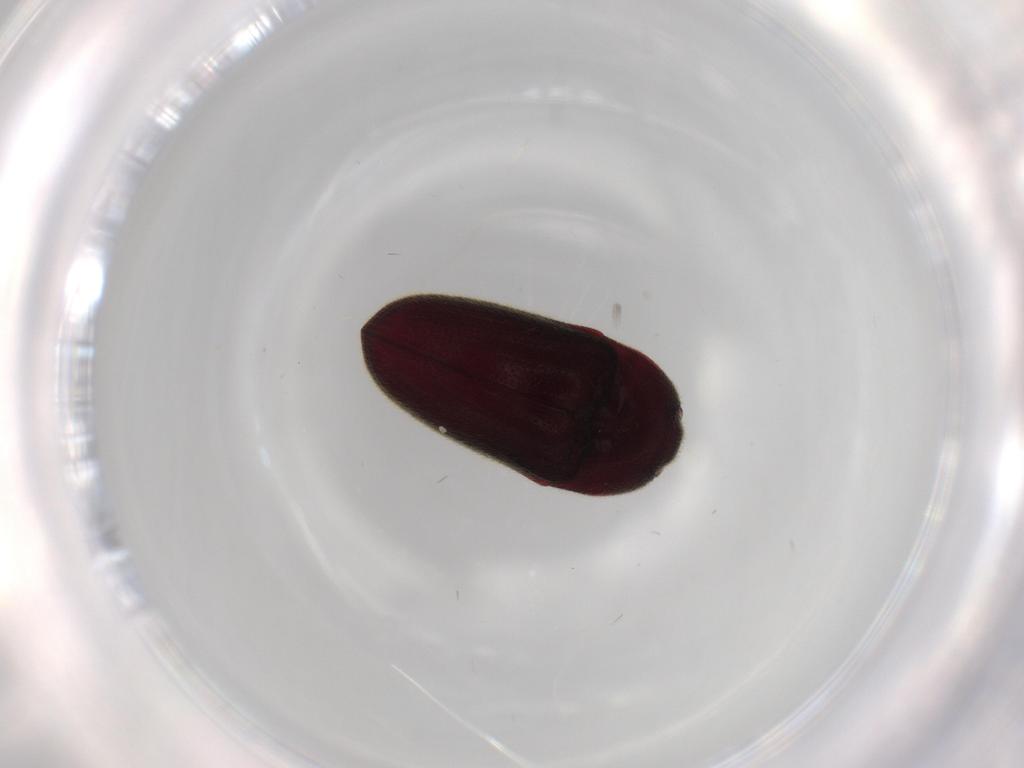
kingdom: Animalia
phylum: Arthropoda
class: Insecta
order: Coleoptera
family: Throscidae
